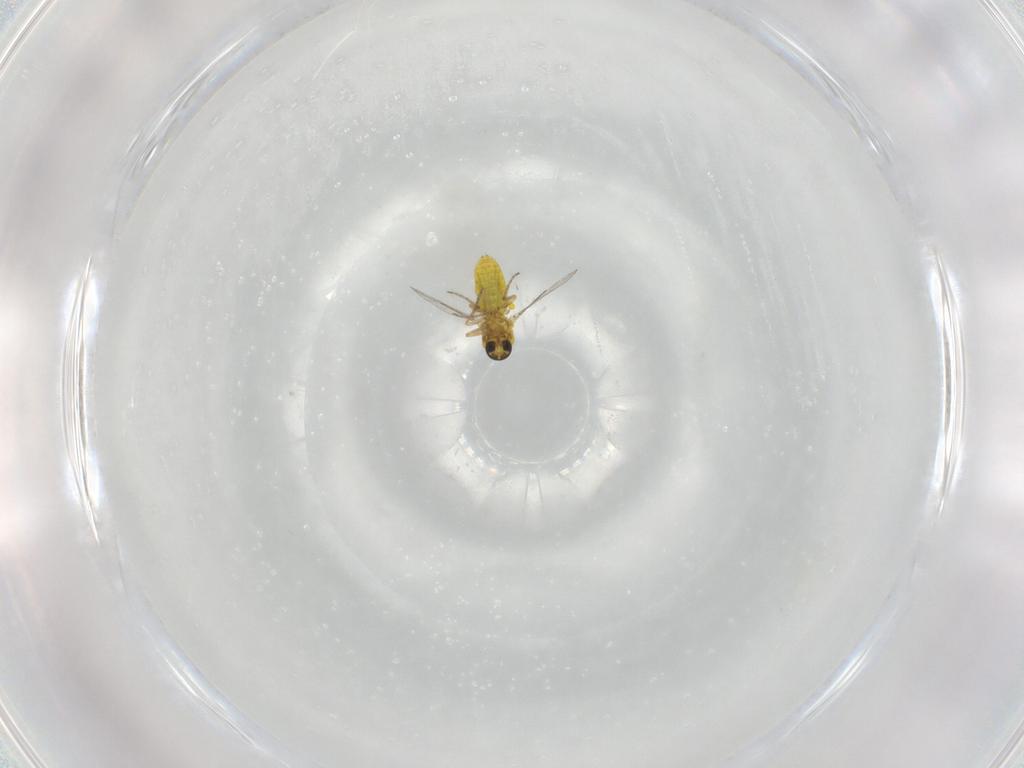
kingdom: Animalia
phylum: Arthropoda
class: Insecta
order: Diptera
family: Ceratopogonidae
